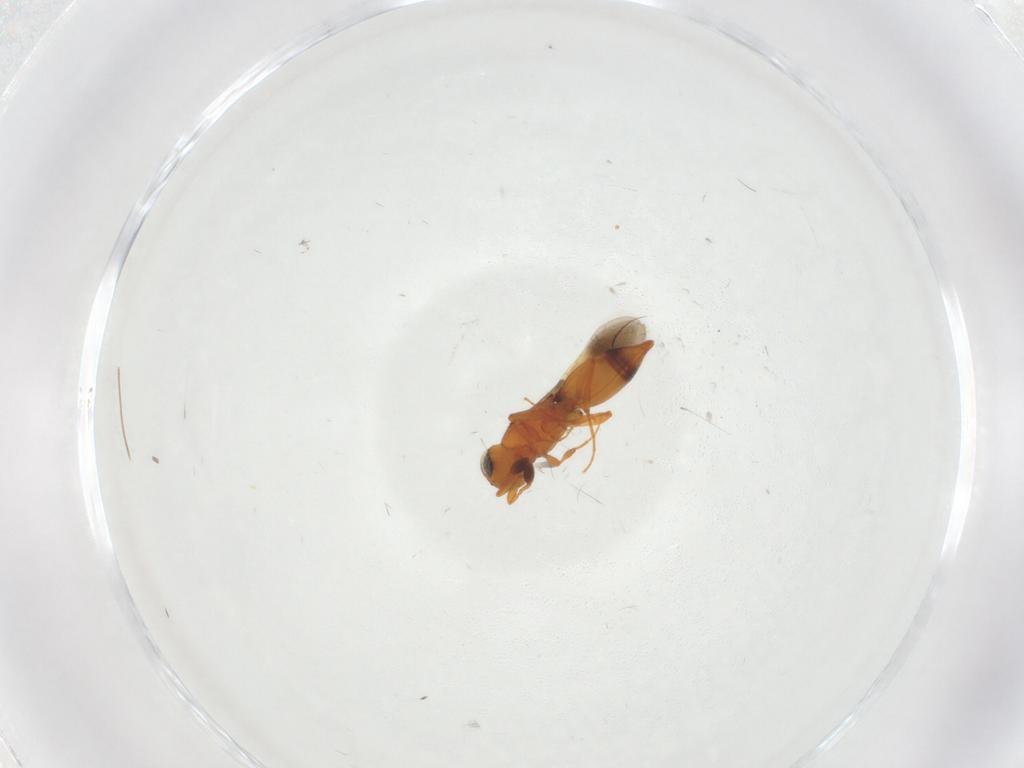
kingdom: Animalia
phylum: Arthropoda
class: Insecta
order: Hymenoptera
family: Platygastridae
